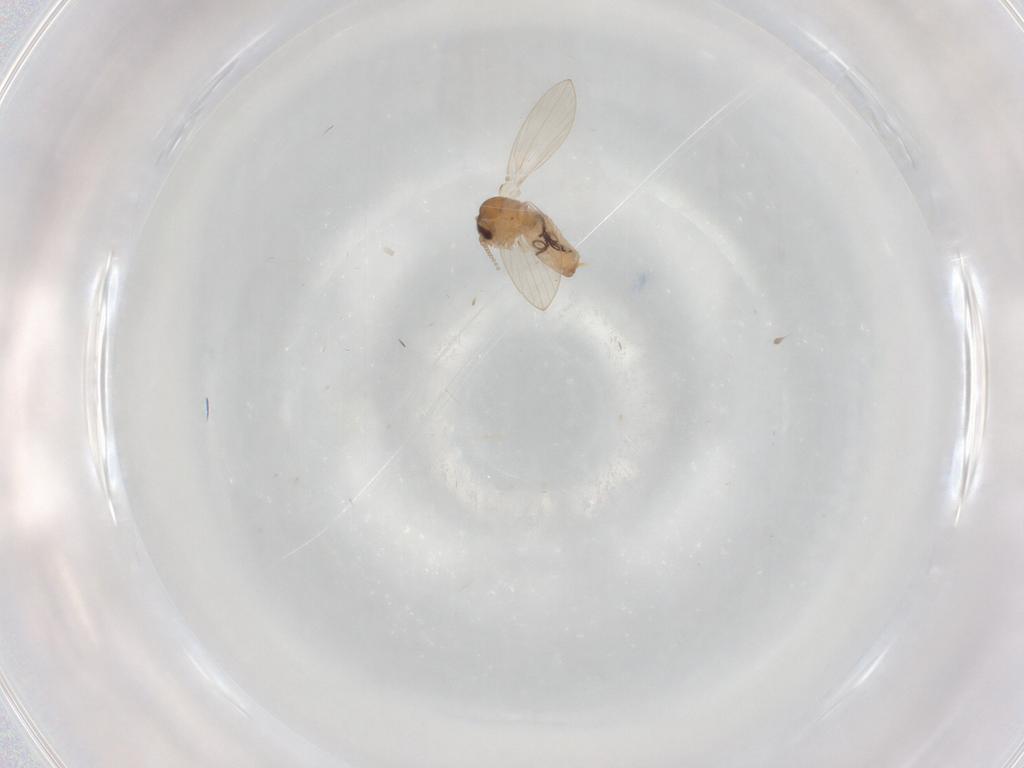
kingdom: Animalia
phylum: Arthropoda
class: Insecta
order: Diptera
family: Psychodidae
